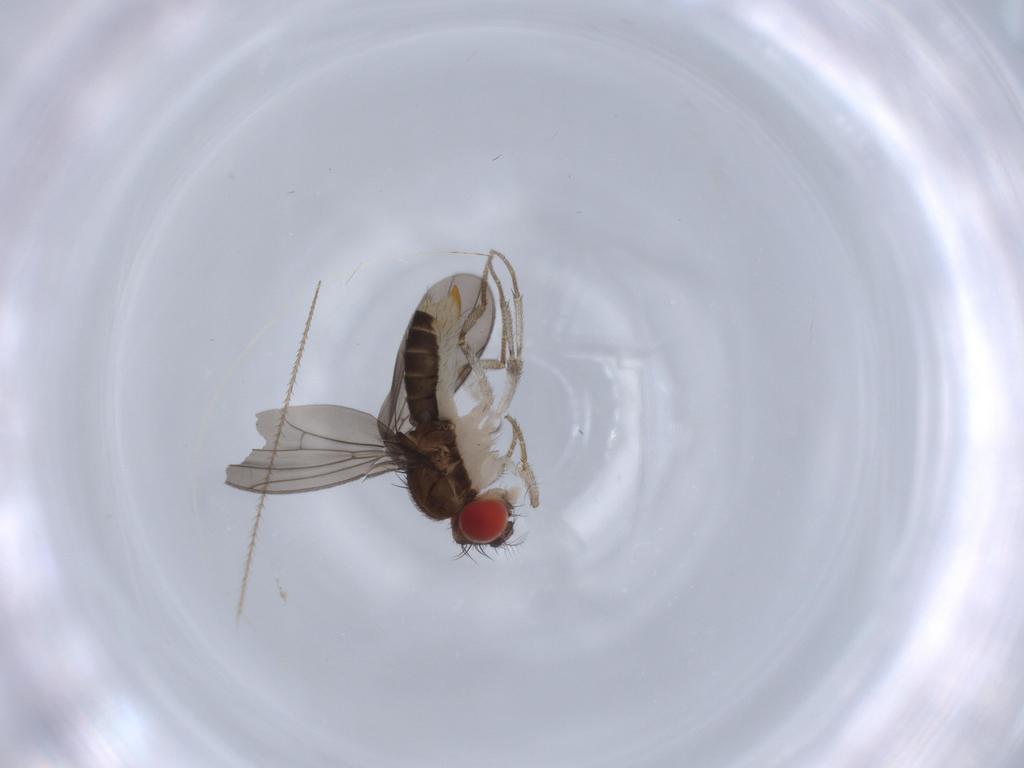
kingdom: Animalia
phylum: Arthropoda
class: Insecta
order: Diptera
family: Drosophilidae
